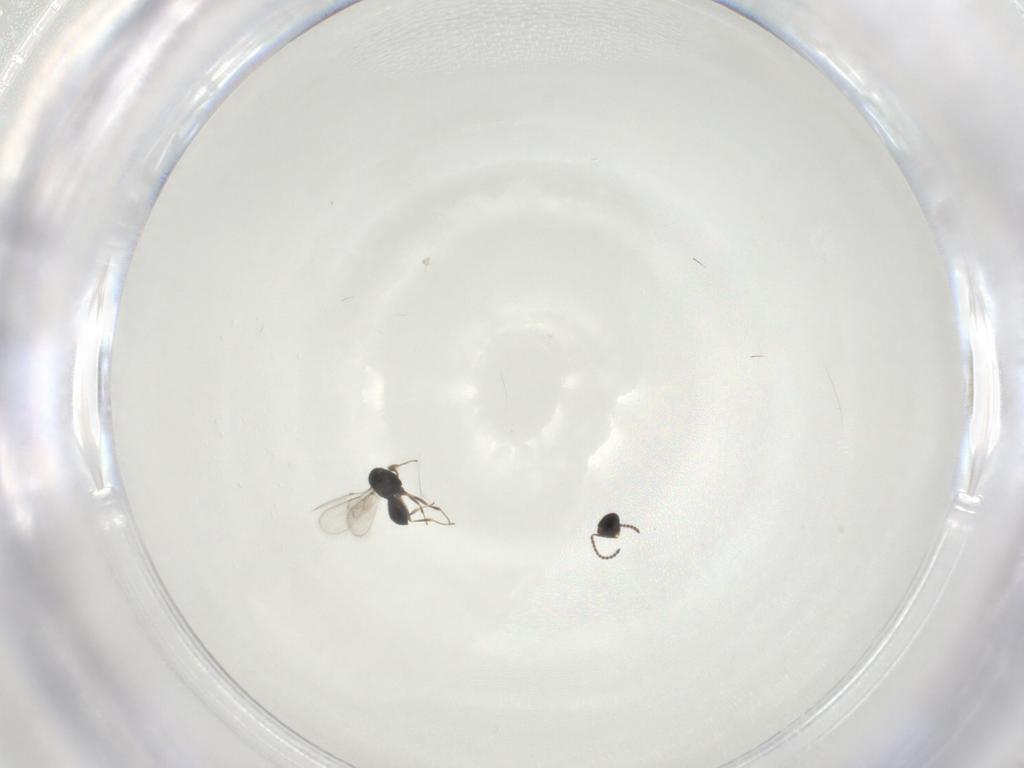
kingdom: Animalia
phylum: Arthropoda
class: Insecta
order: Hymenoptera
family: Scelionidae
